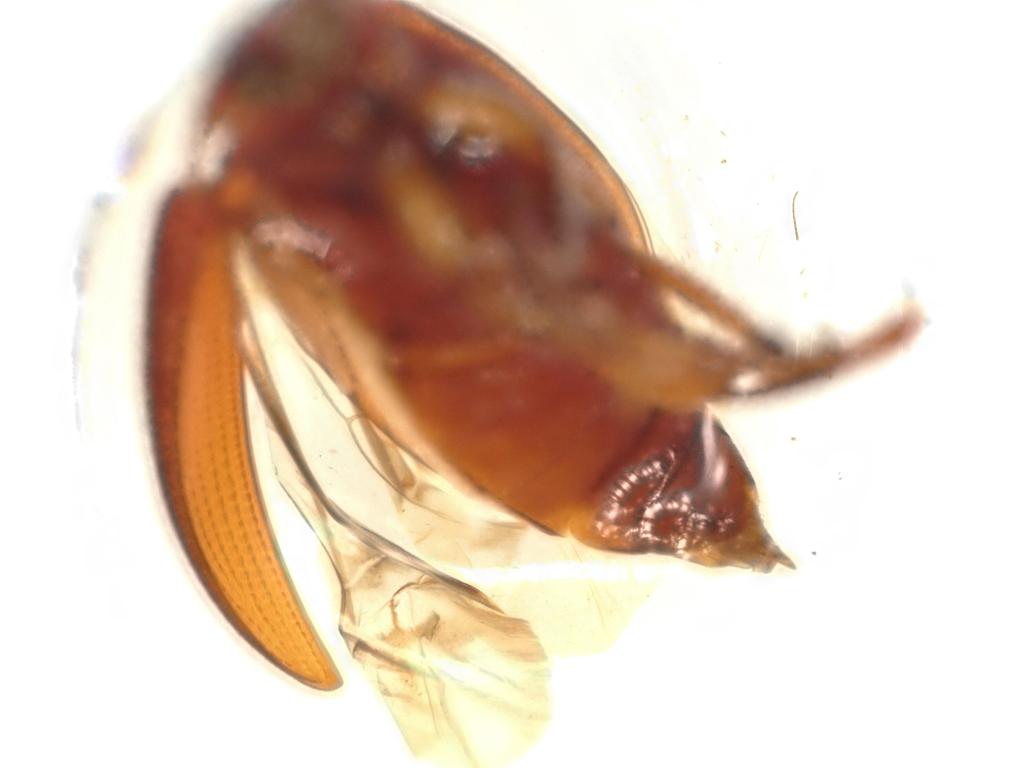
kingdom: Animalia
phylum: Arthropoda
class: Insecta
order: Coleoptera
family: Tenebrionidae
